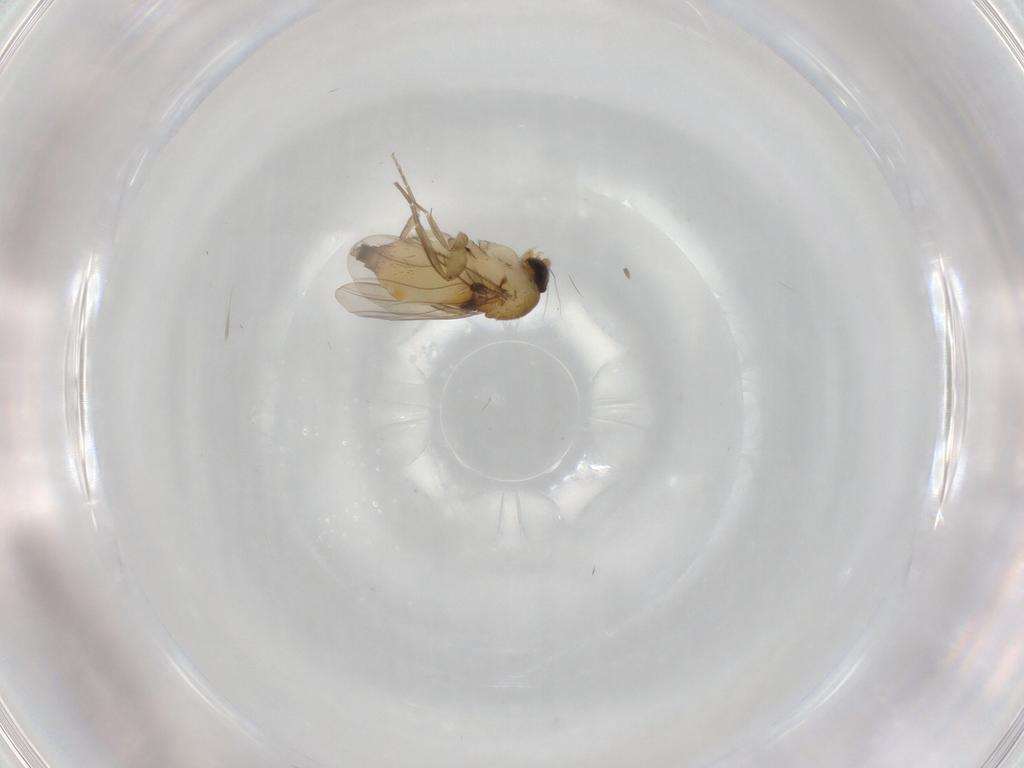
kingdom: Animalia
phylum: Arthropoda
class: Insecta
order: Diptera
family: Phoridae
